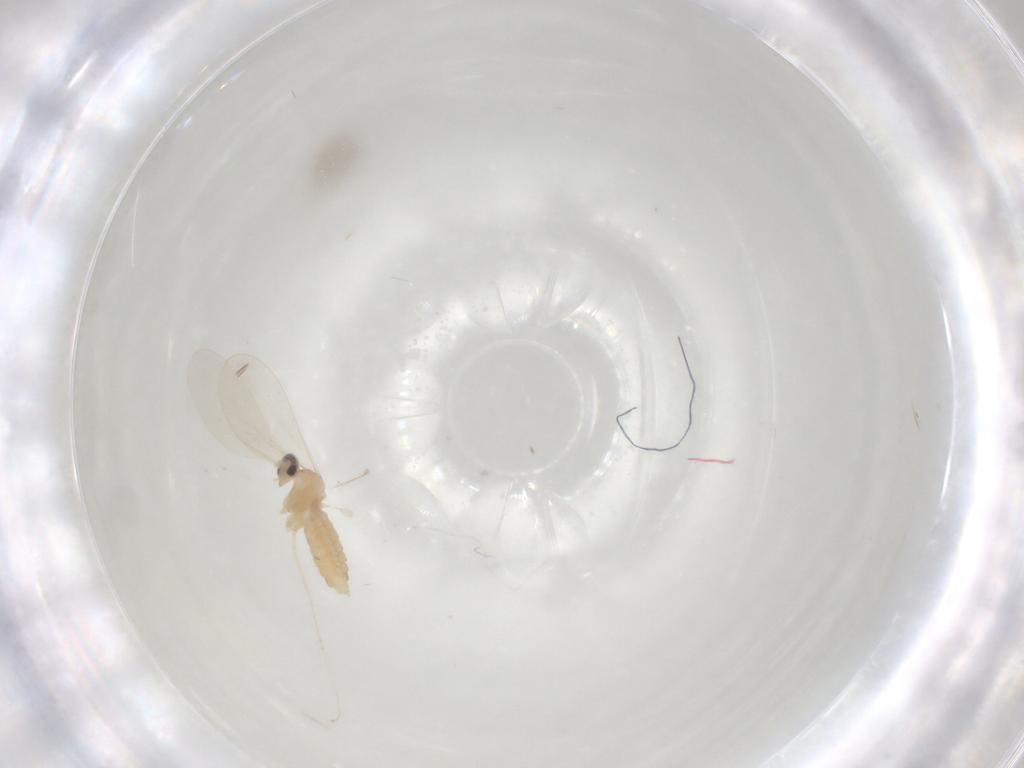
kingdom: Animalia
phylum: Arthropoda
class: Insecta
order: Diptera
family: Cecidomyiidae
